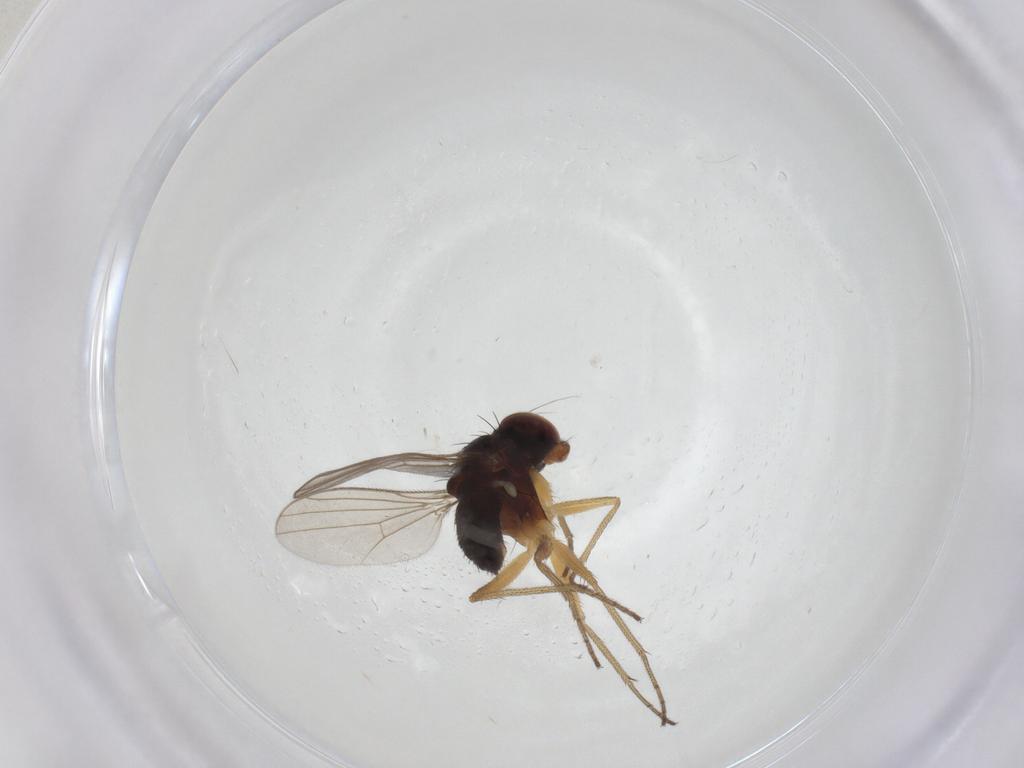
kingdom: Animalia
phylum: Arthropoda
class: Insecta
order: Diptera
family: Dolichopodidae
